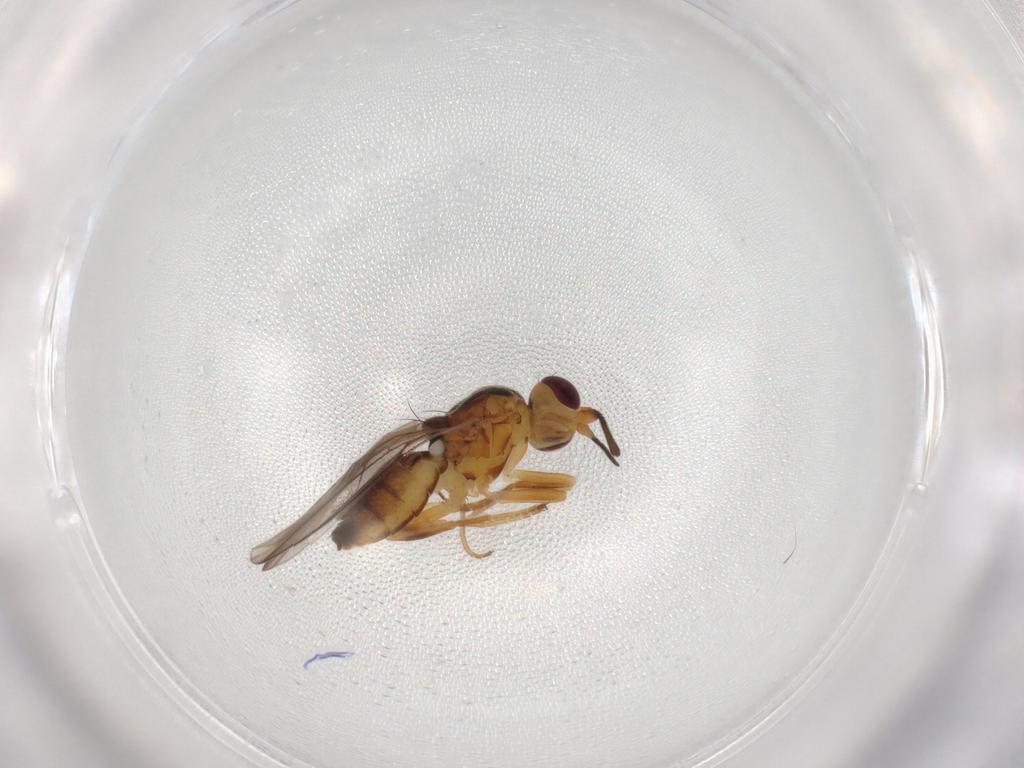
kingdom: Animalia
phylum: Arthropoda
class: Insecta
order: Diptera
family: Chloropidae
